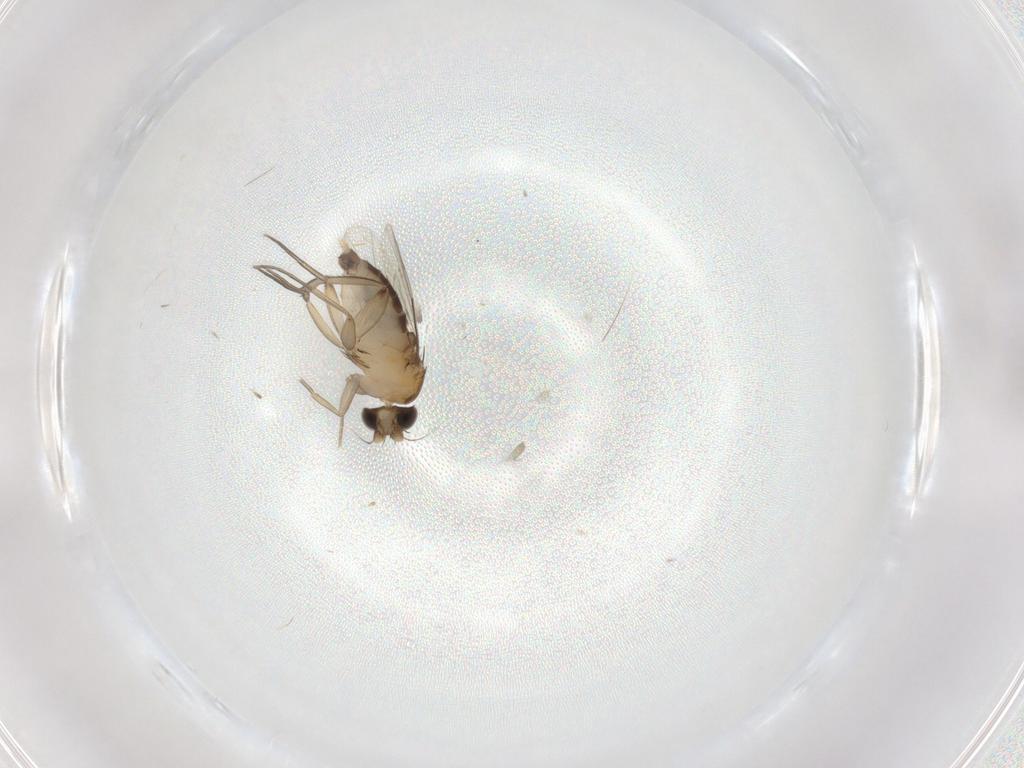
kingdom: Animalia
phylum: Arthropoda
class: Insecta
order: Diptera
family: Phoridae
